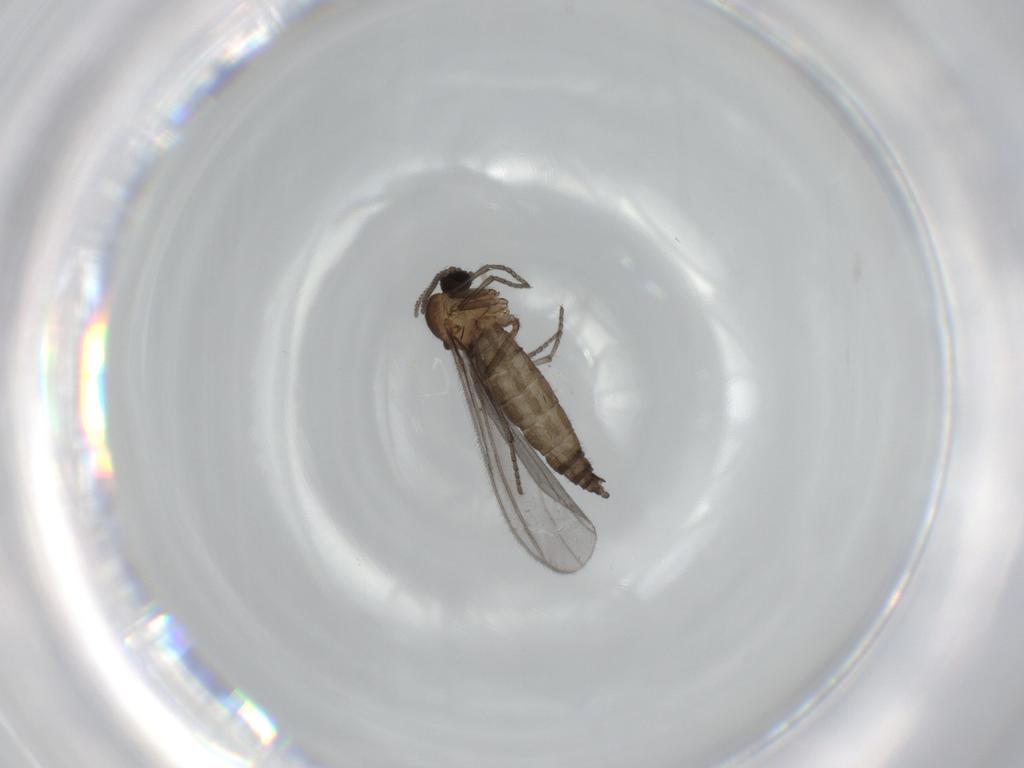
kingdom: Animalia
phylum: Arthropoda
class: Insecta
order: Diptera
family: Sciaridae
